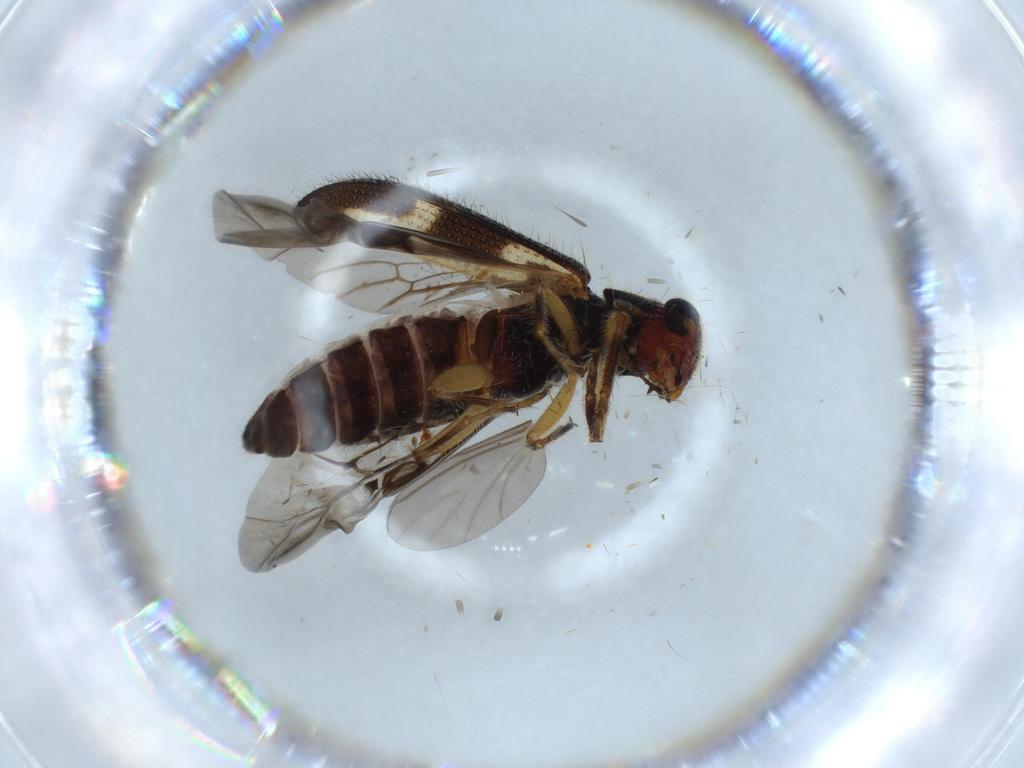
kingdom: Animalia
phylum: Arthropoda
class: Insecta
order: Coleoptera
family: Cleridae
